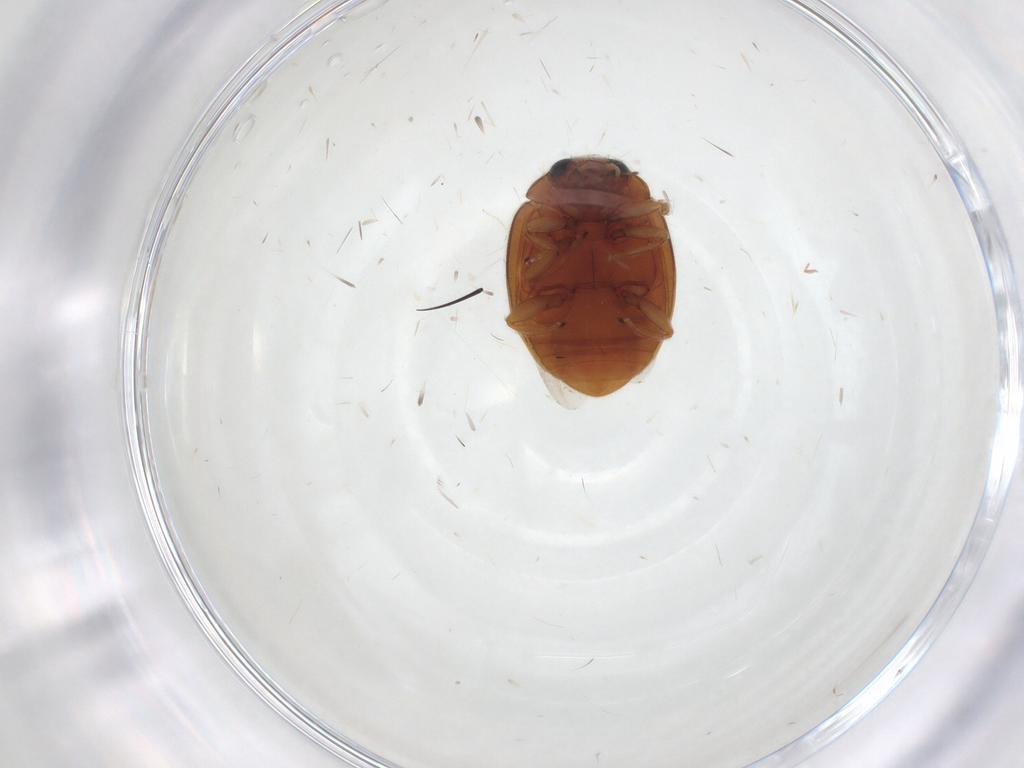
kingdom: Animalia
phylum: Arthropoda
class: Insecta
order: Coleoptera
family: Coccinellidae
